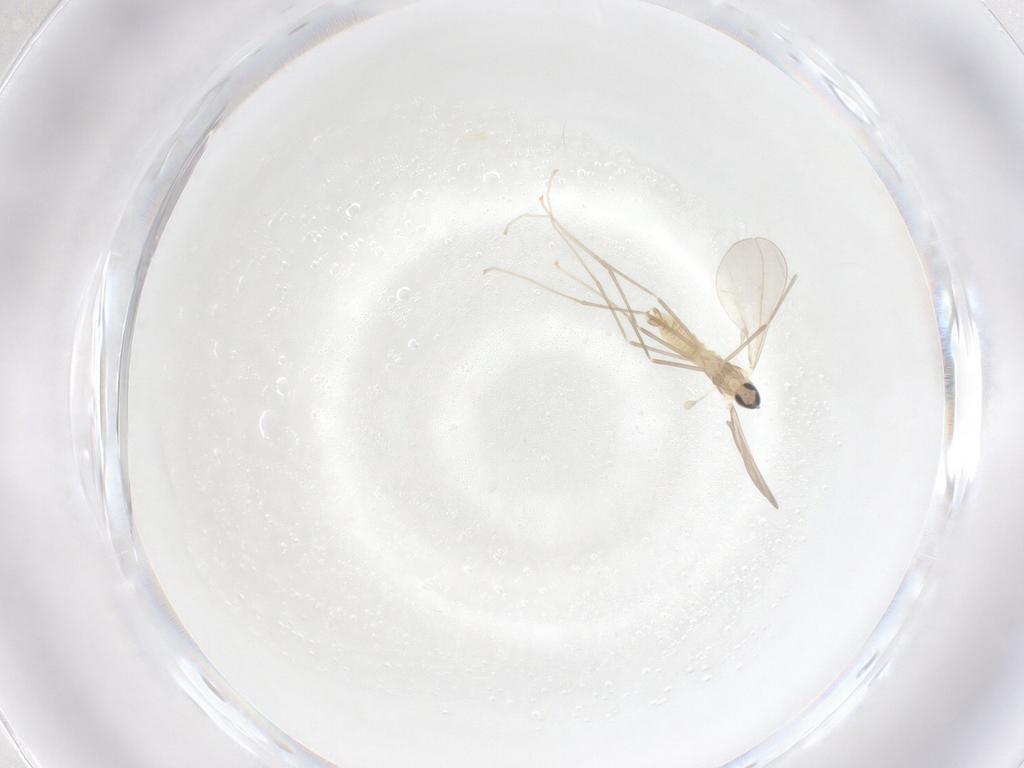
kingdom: Animalia
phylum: Arthropoda
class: Insecta
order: Diptera
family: Cecidomyiidae
